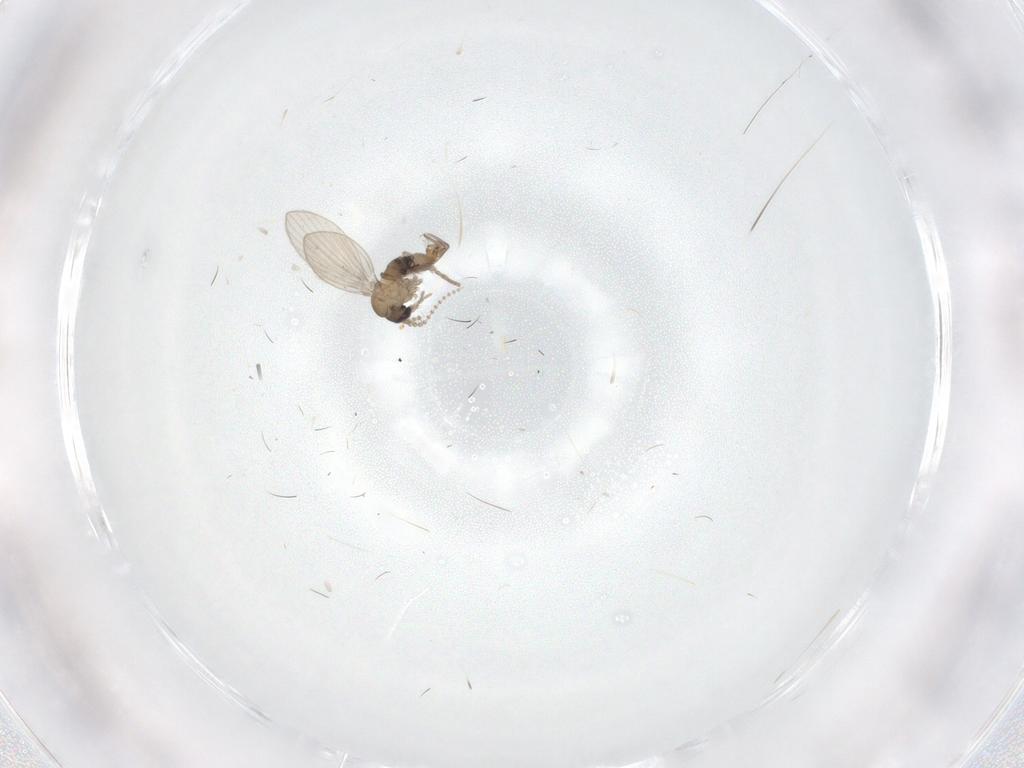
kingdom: Animalia
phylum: Arthropoda
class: Insecta
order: Diptera
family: Psychodidae
